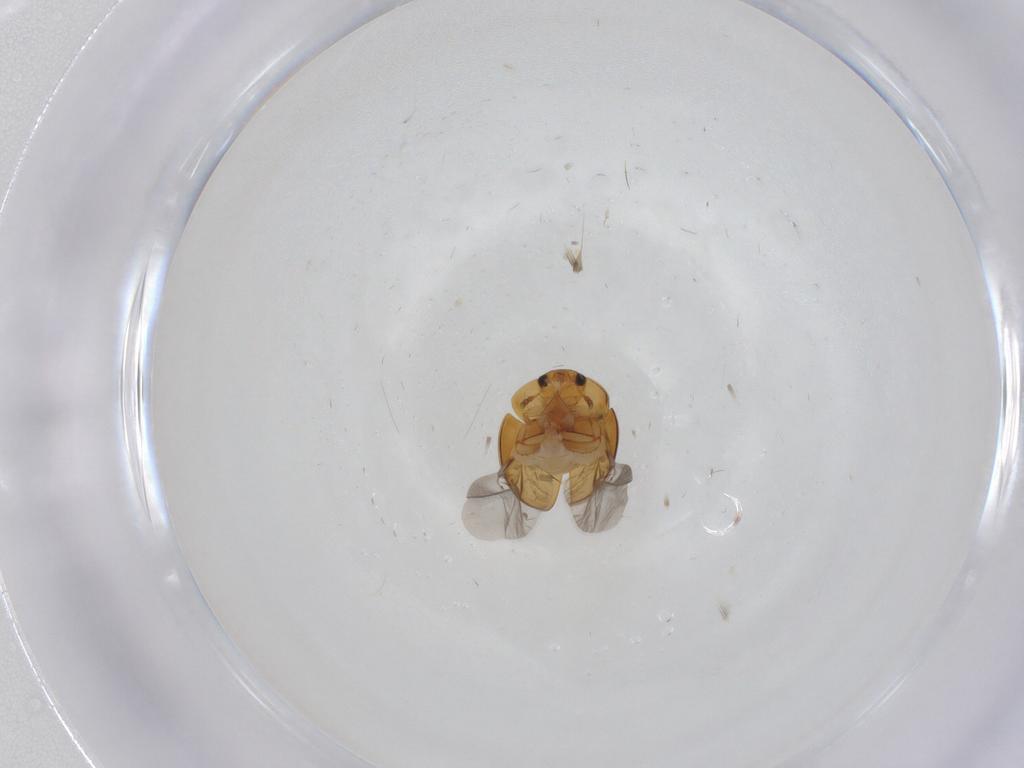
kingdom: Animalia
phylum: Arthropoda
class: Insecta
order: Coleoptera
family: Phalacridae
